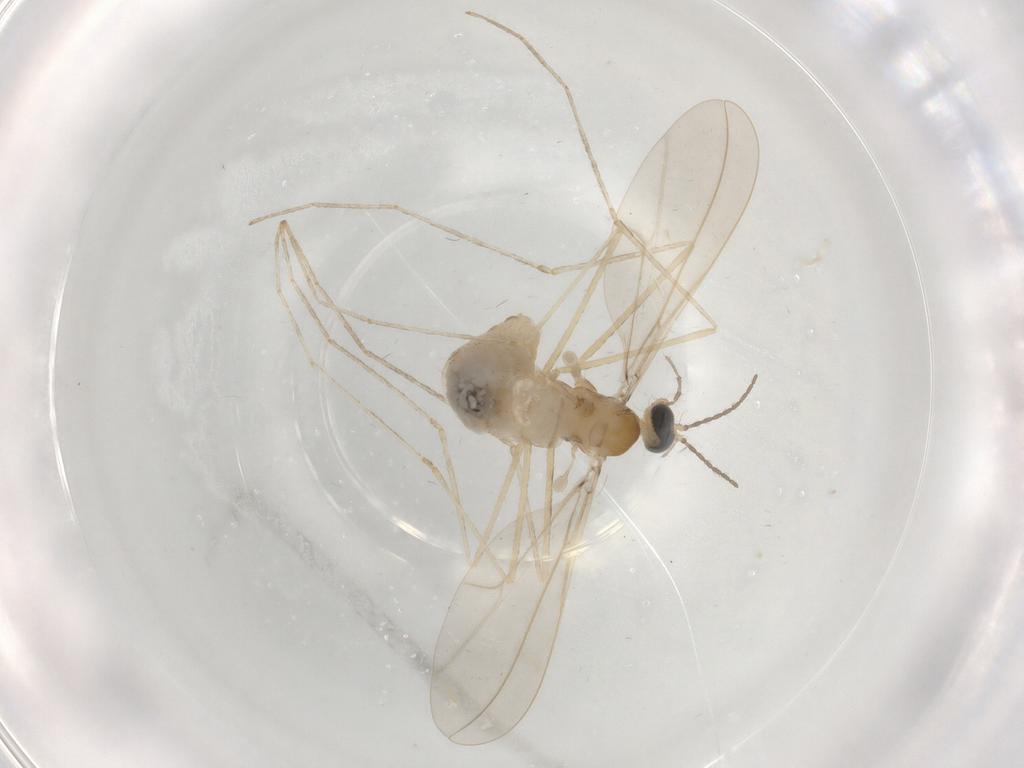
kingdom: Animalia
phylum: Arthropoda
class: Insecta
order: Diptera
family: Cecidomyiidae
